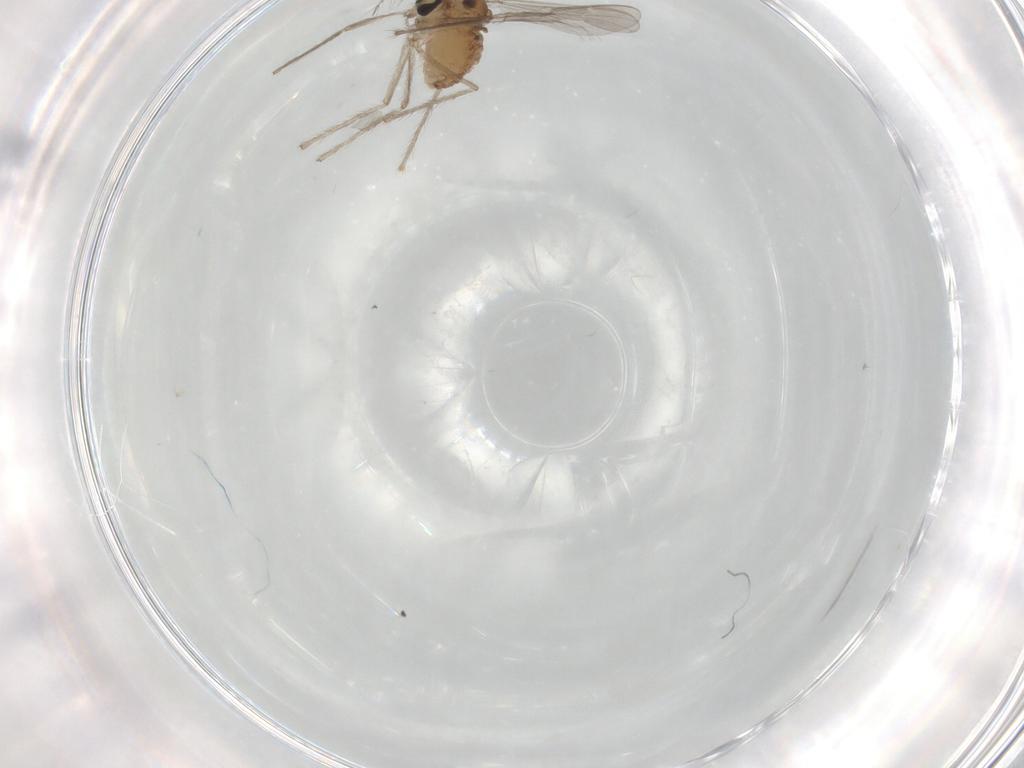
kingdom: Animalia
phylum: Arthropoda
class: Insecta
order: Diptera
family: Chironomidae
